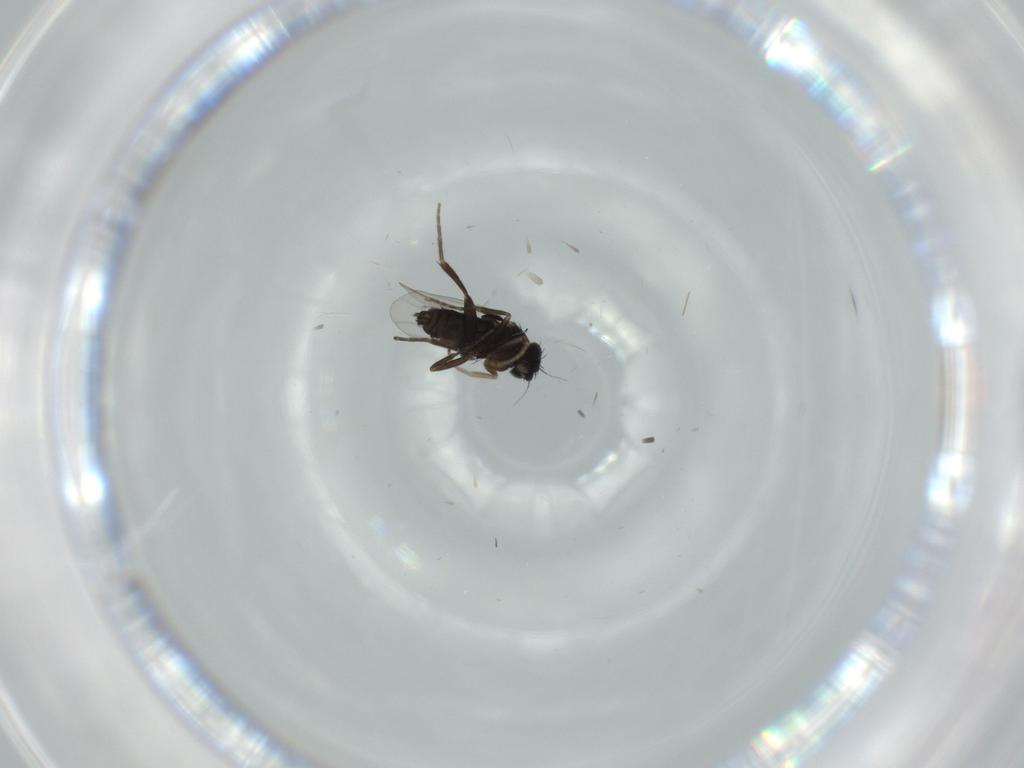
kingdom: Animalia
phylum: Arthropoda
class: Insecta
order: Diptera
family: Phoridae
